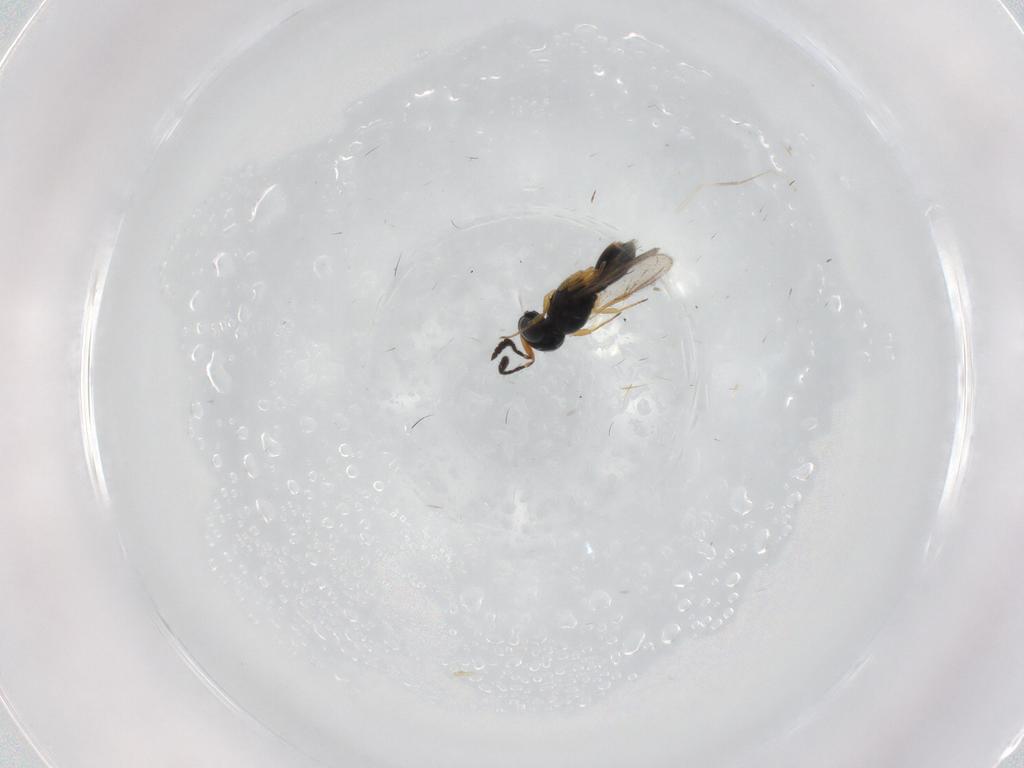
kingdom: Animalia
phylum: Arthropoda
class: Insecta
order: Hymenoptera
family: Scelionidae
